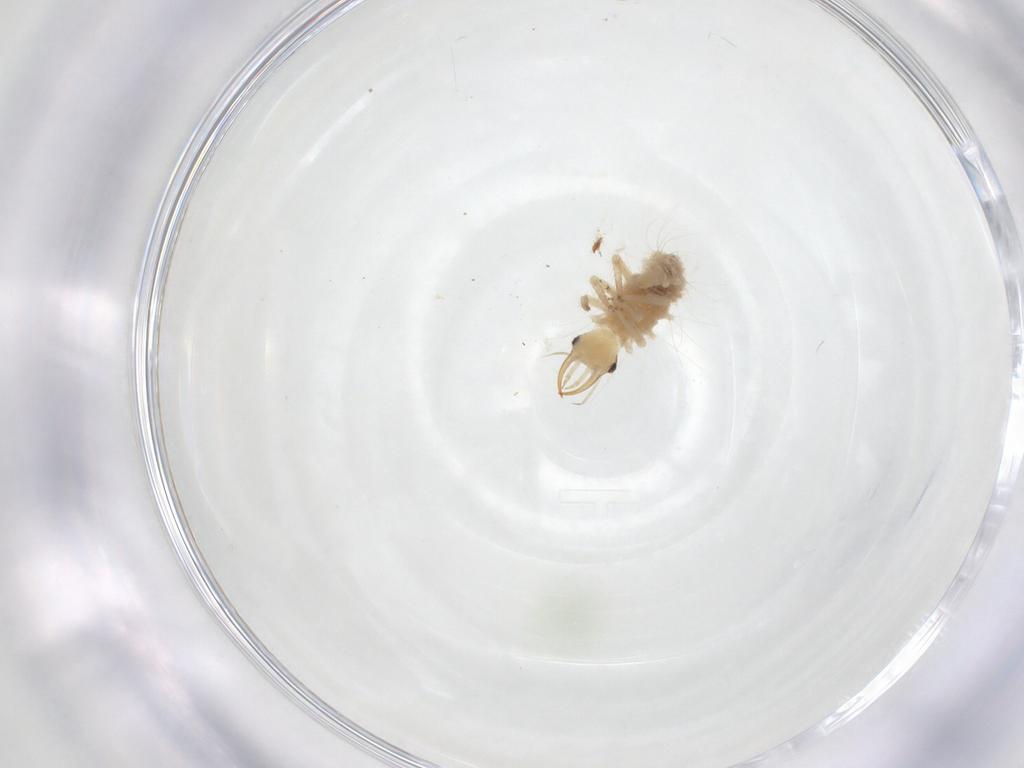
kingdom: Animalia
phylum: Arthropoda
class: Insecta
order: Neuroptera
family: Chrysopidae
